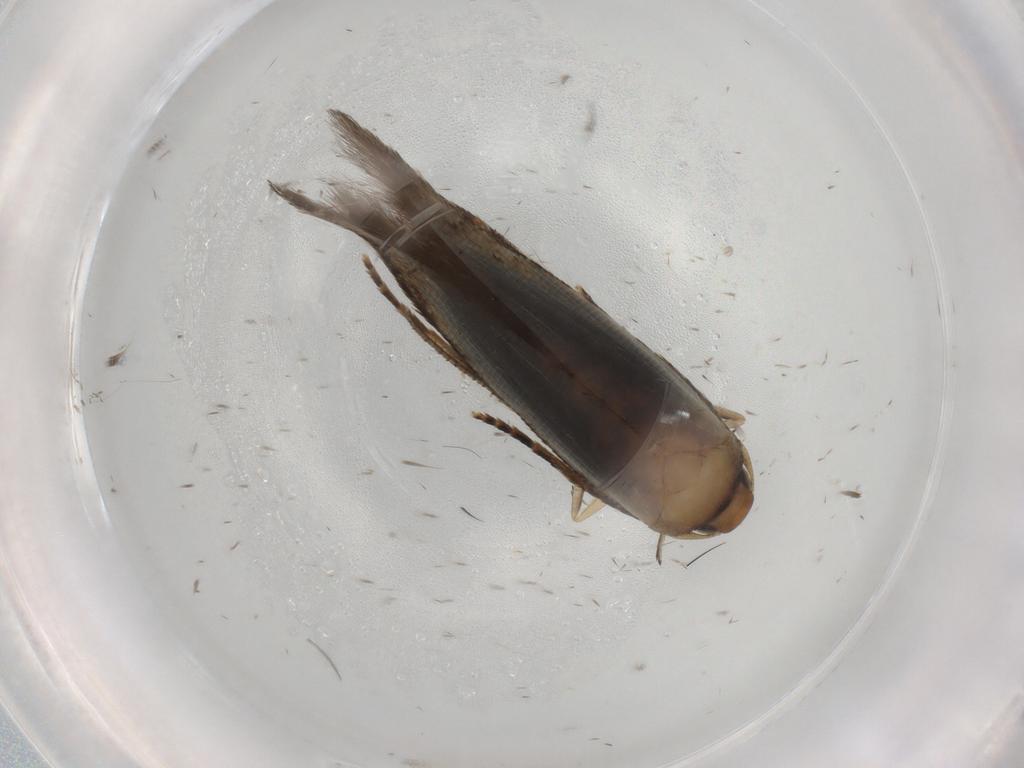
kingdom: Animalia
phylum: Arthropoda
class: Insecta
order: Lepidoptera
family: Cosmopterigidae
